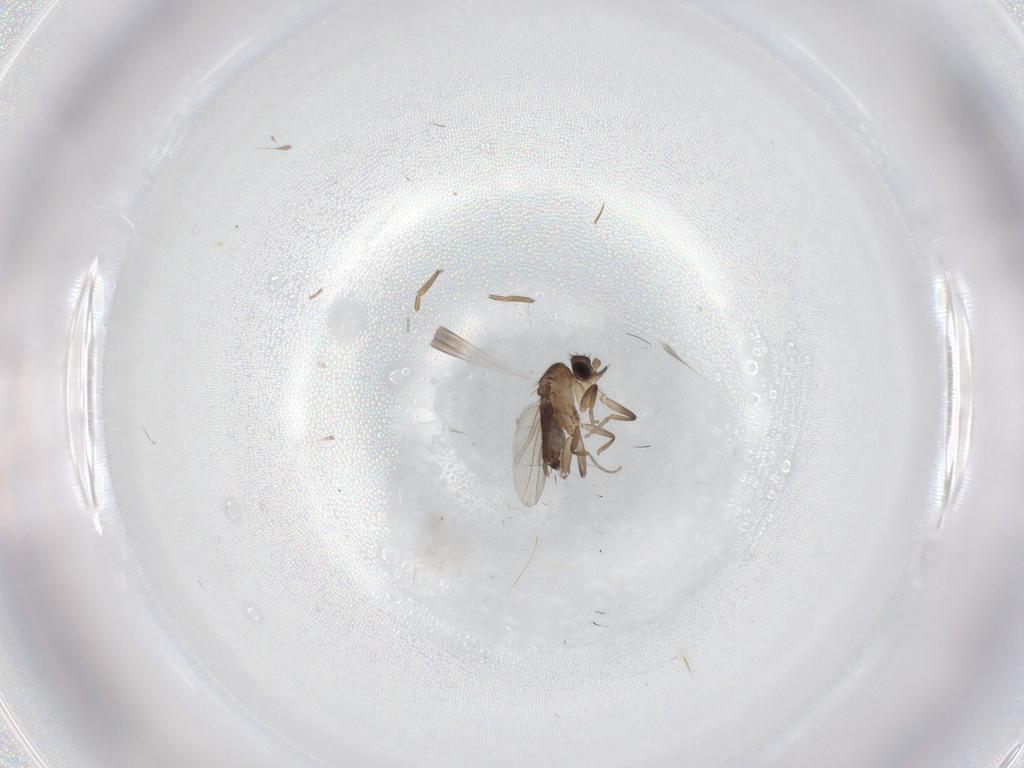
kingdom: Animalia
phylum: Arthropoda
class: Insecta
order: Diptera
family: Phoridae
